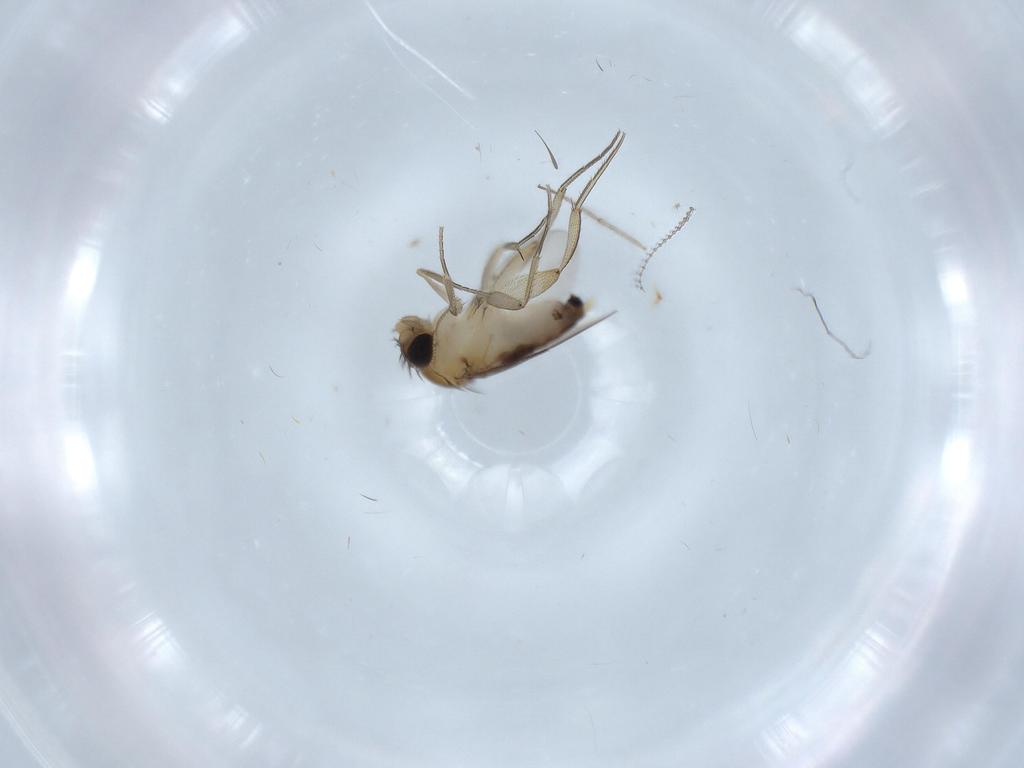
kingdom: Animalia
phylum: Arthropoda
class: Insecta
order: Diptera
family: Phoridae
